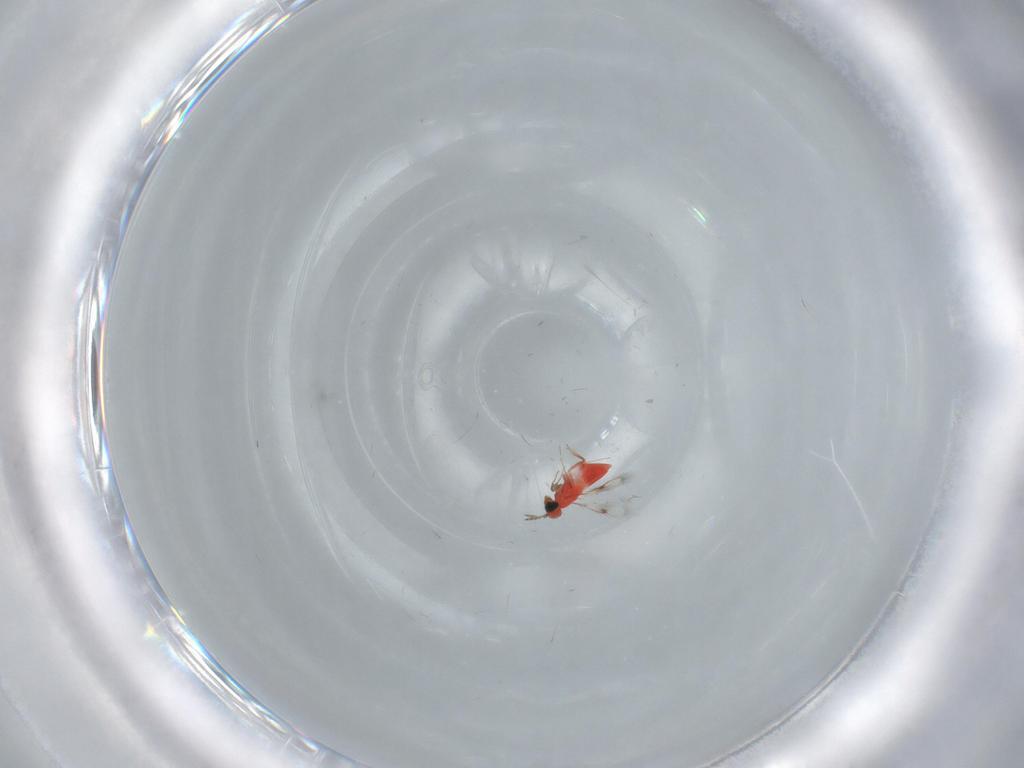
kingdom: Animalia
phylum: Arthropoda
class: Insecta
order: Hymenoptera
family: Trichogrammatidae
